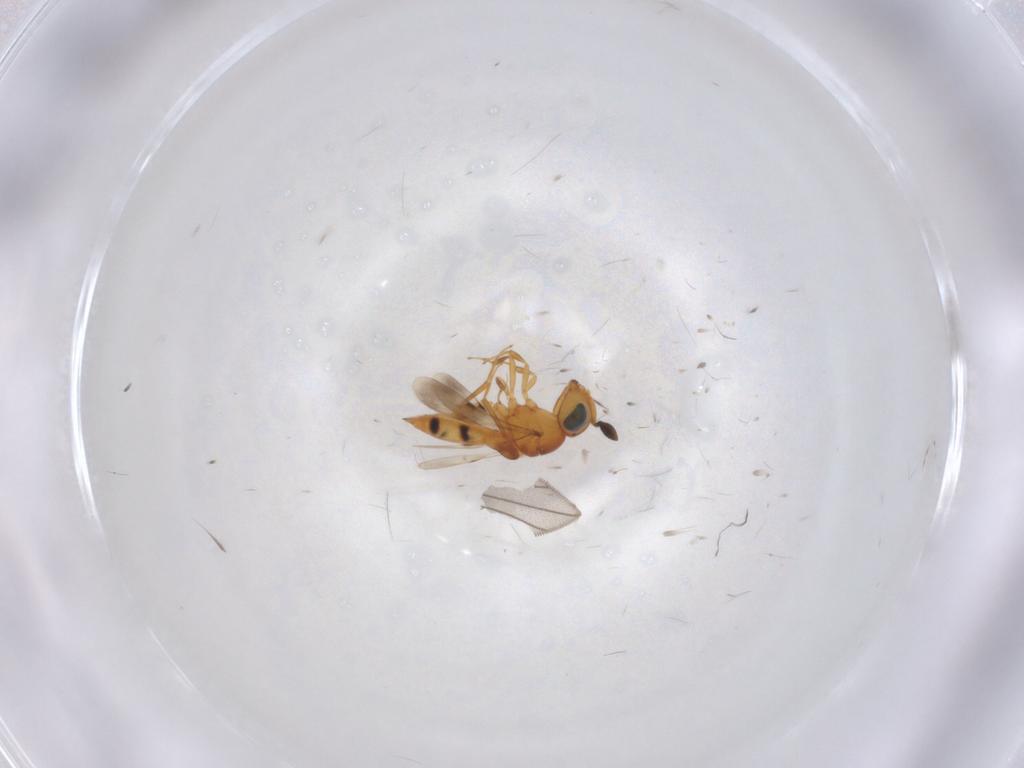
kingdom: Animalia
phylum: Arthropoda
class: Insecta
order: Hymenoptera
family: Scelionidae
